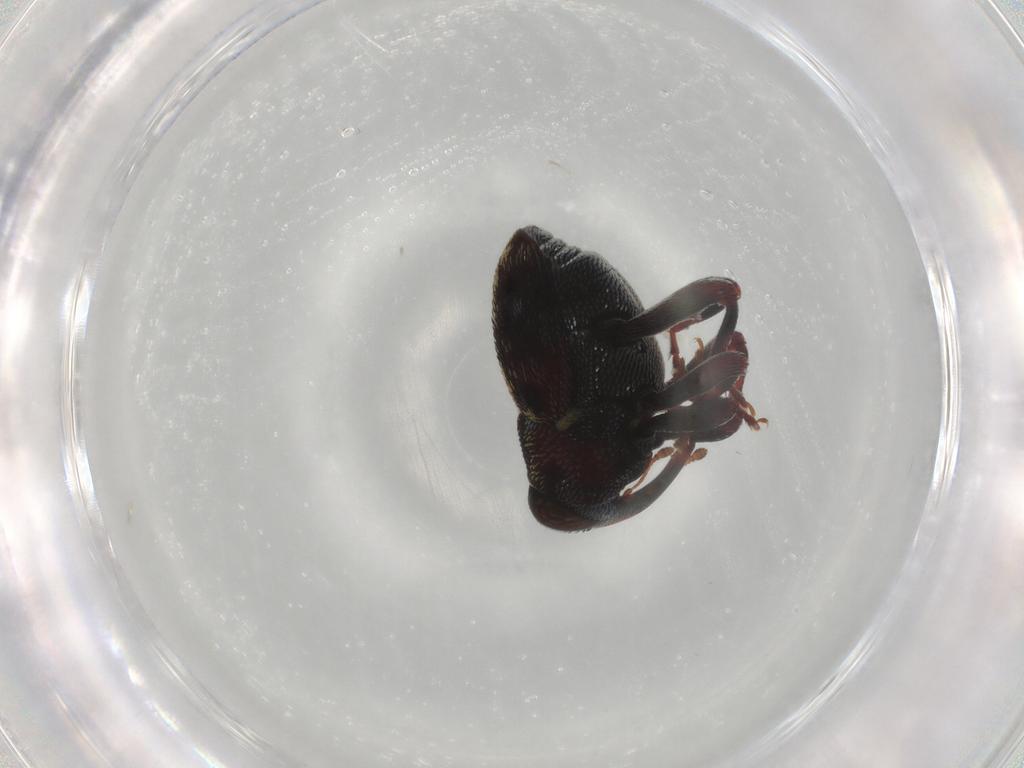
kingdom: Animalia
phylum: Arthropoda
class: Insecta
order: Coleoptera
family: Curculionidae
